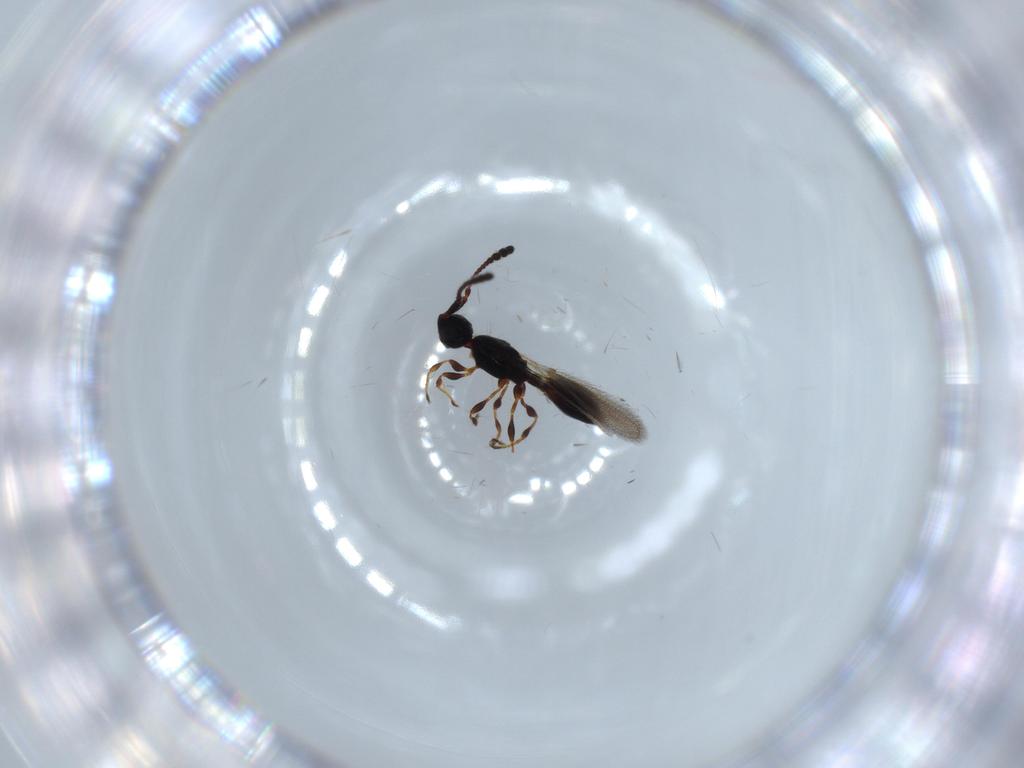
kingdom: Animalia
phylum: Arthropoda
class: Insecta
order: Hymenoptera
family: Diapriidae
